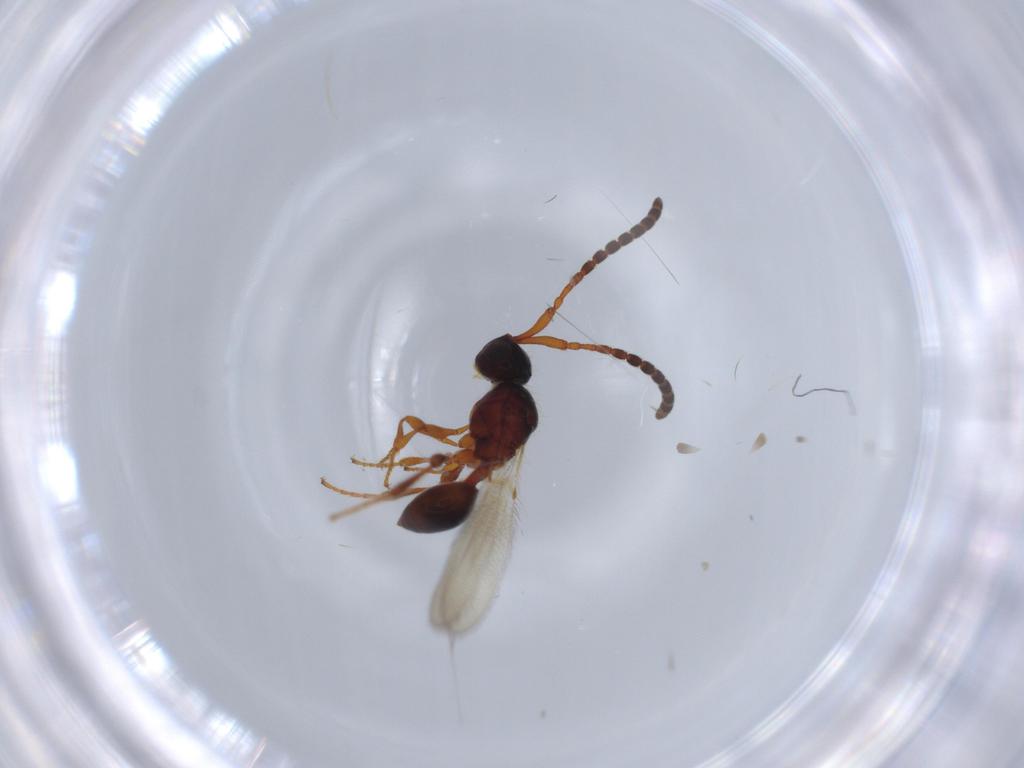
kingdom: Animalia
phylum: Arthropoda
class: Insecta
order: Hymenoptera
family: Diapriidae
